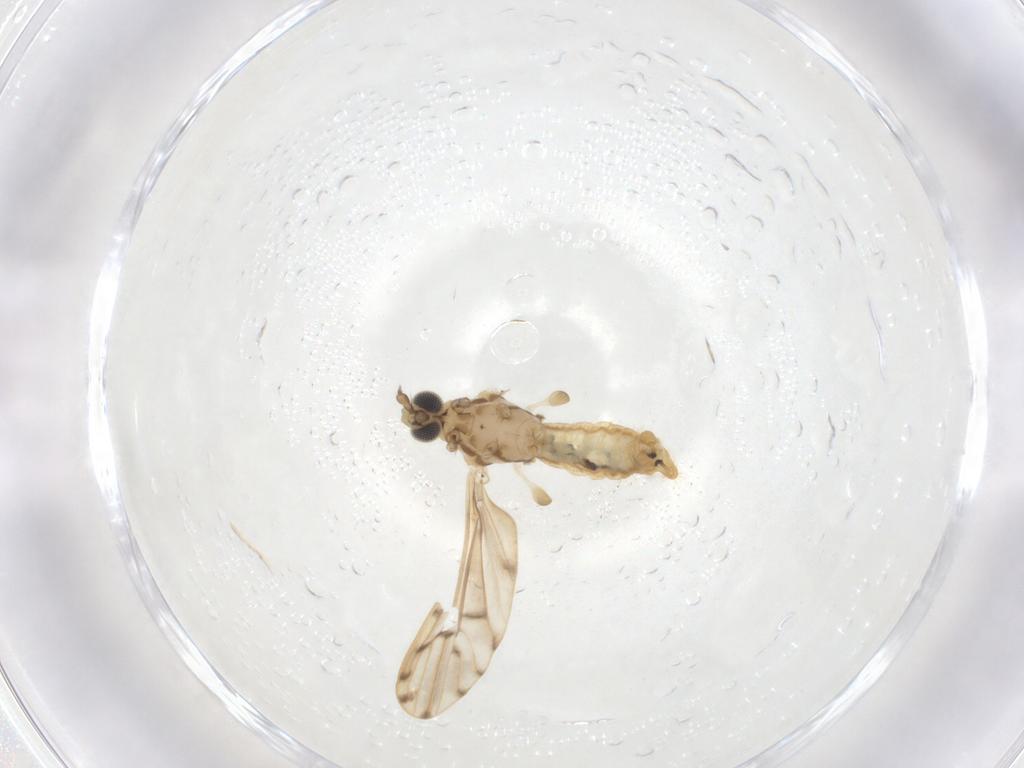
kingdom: Animalia
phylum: Arthropoda
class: Insecta
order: Diptera
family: Limoniidae
